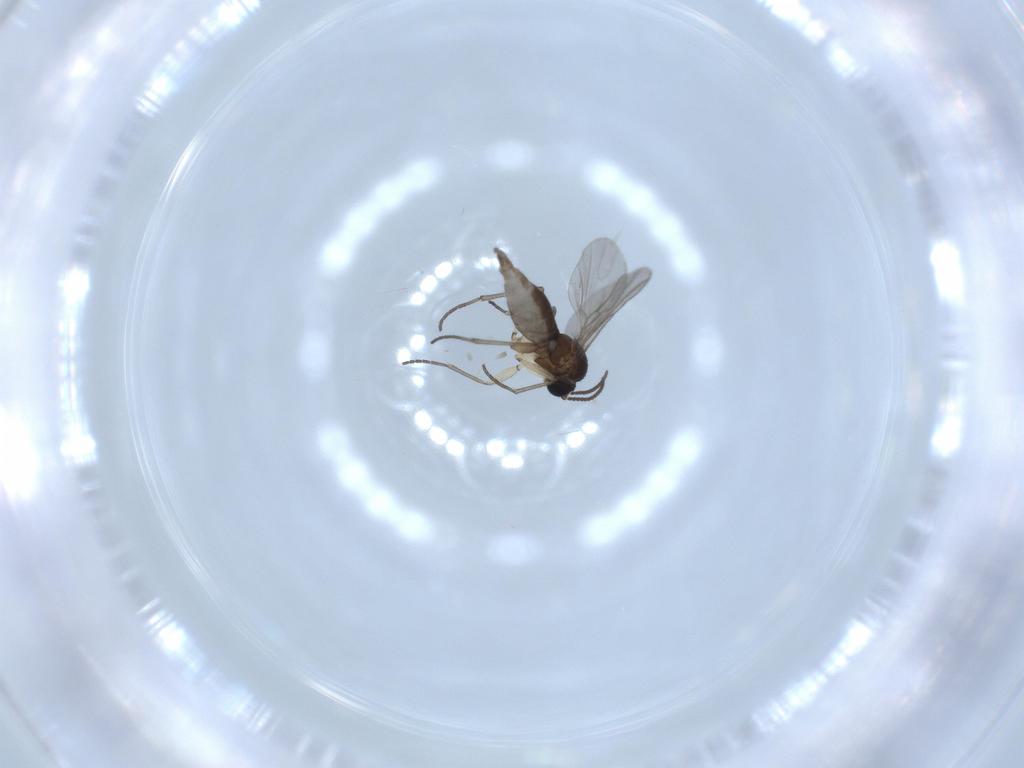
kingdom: Animalia
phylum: Arthropoda
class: Insecta
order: Diptera
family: Sciaridae
